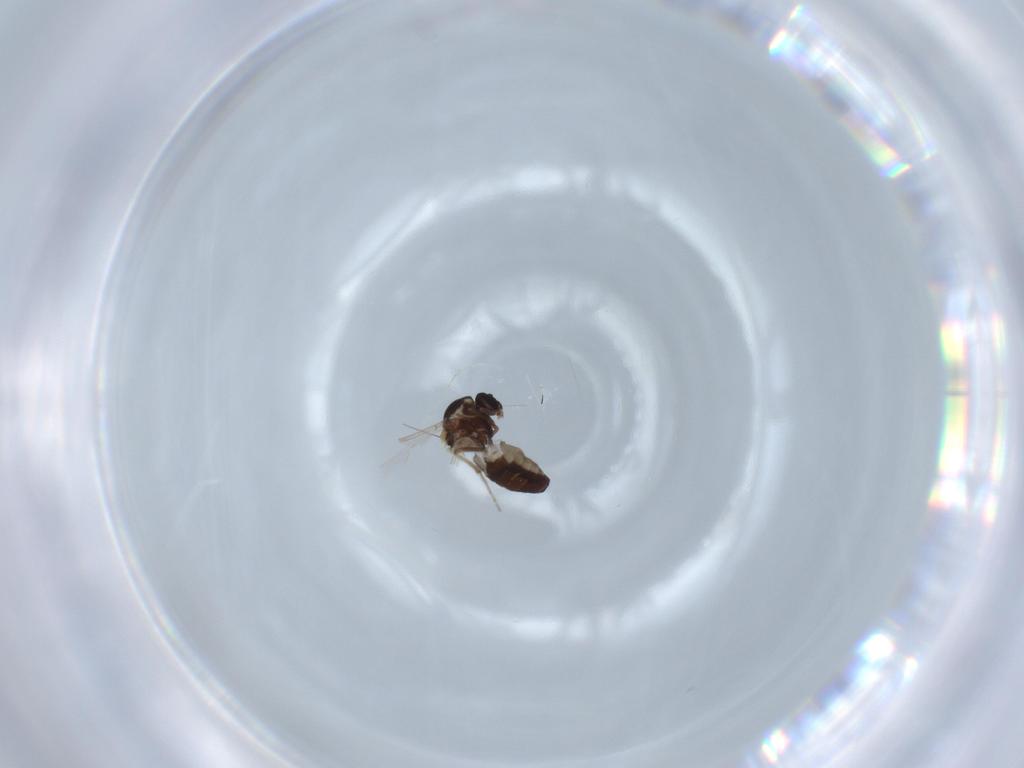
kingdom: Animalia
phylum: Arthropoda
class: Insecta
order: Diptera
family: Ceratopogonidae
